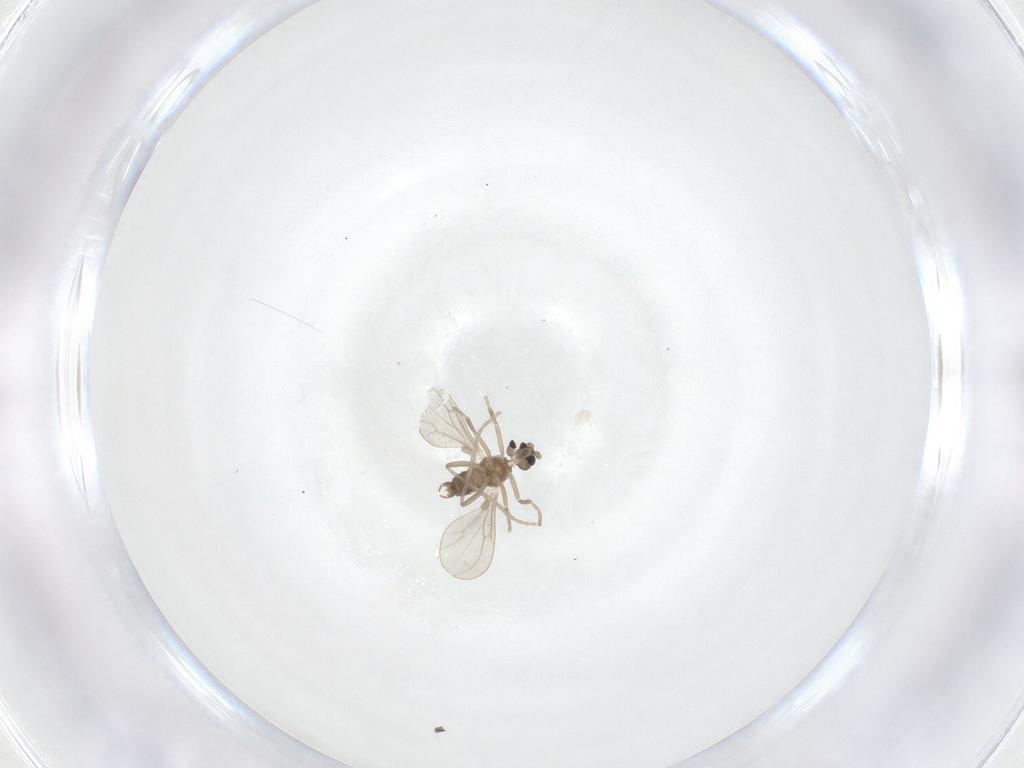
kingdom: Animalia
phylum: Arthropoda
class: Insecta
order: Diptera
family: Cecidomyiidae
